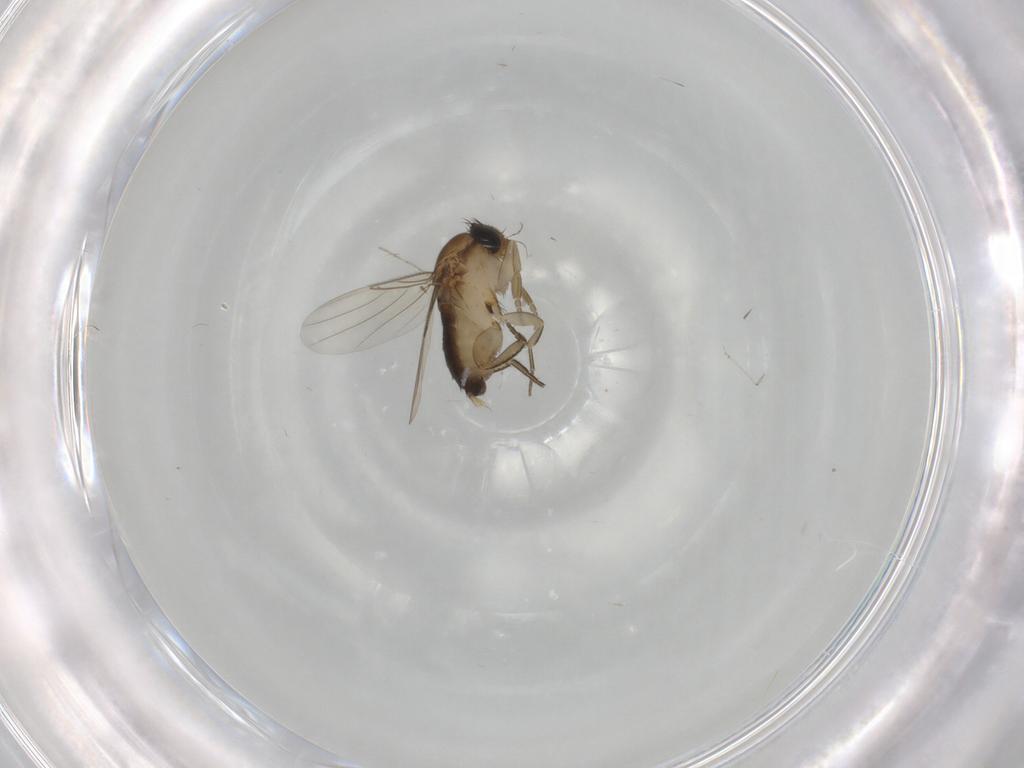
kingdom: Animalia
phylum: Arthropoda
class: Insecta
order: Diptera
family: Phoridae
